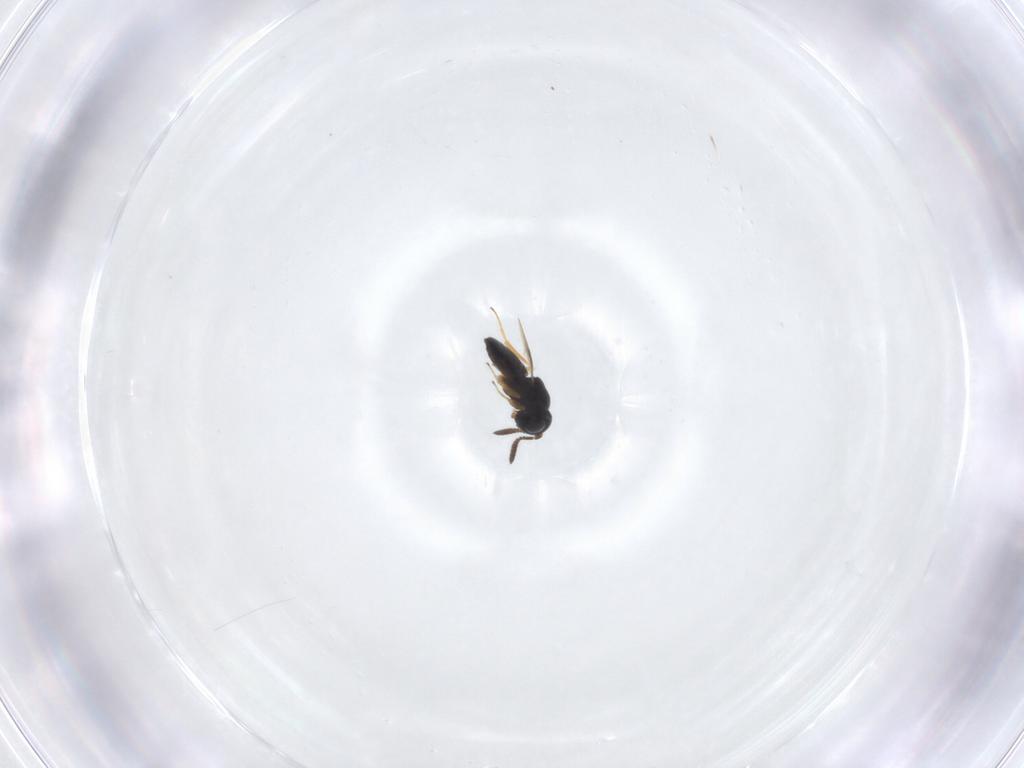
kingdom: Animalia
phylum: Arthropoda
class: Insecta
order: Hymenoptera
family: Scelionidae
